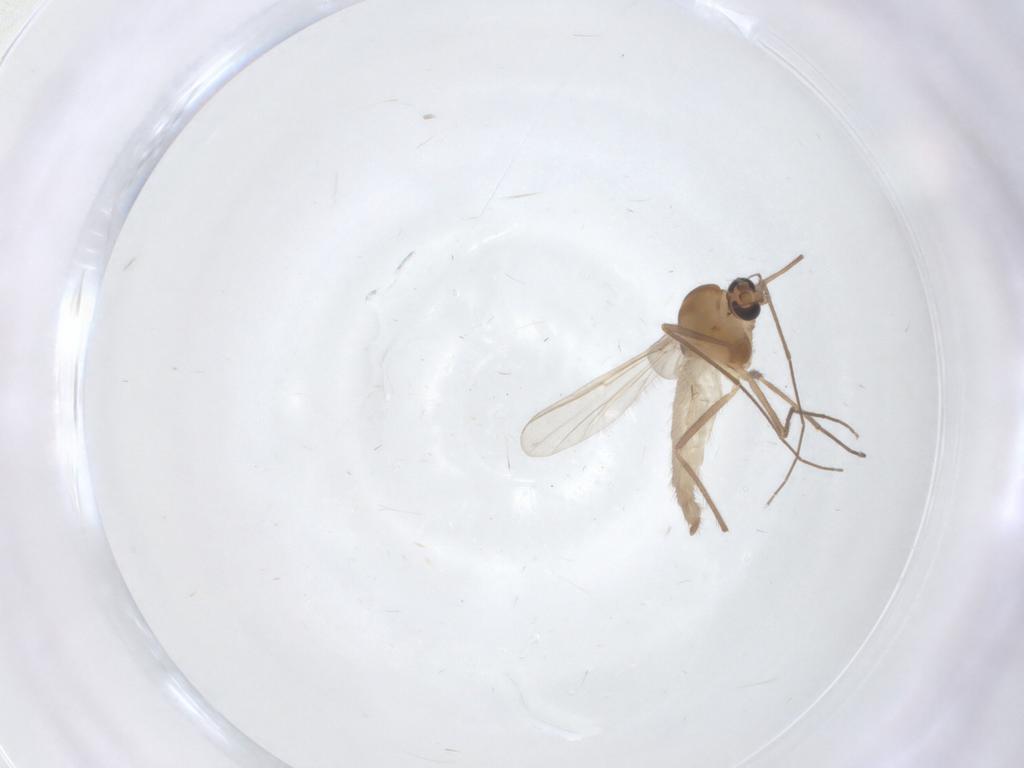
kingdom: Animalia
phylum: Arthropoda
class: Insecta
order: Diptera
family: Chironomidae
